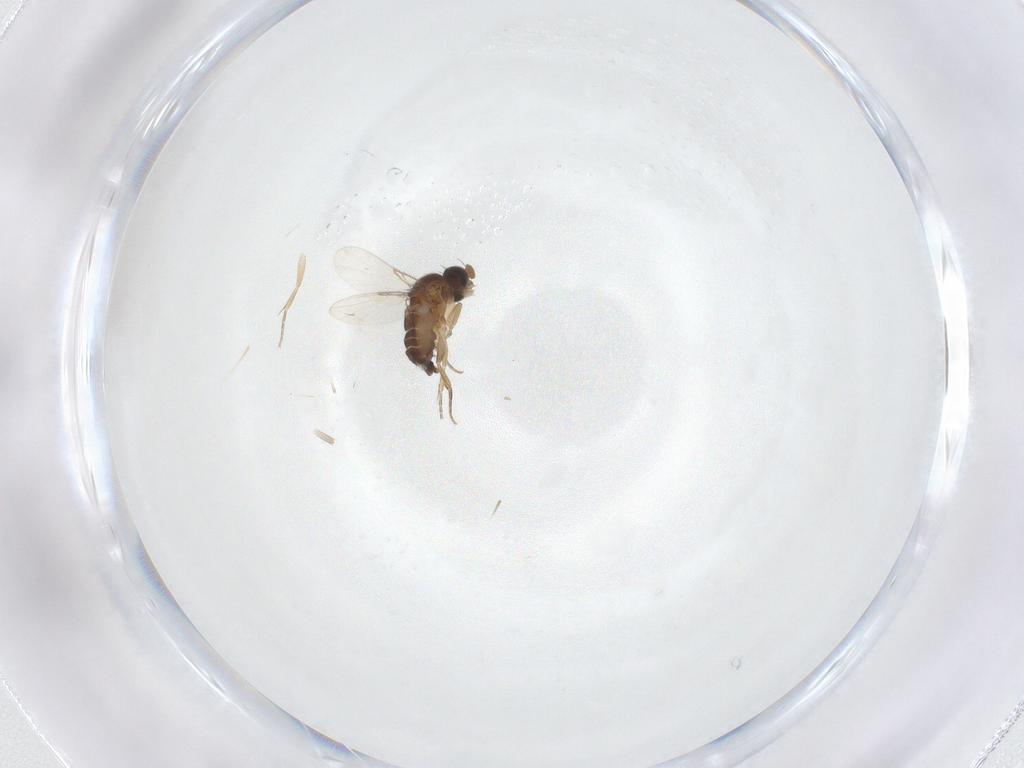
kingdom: Animalia
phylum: Arthropoda
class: Insecta
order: Diptera
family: Phoridae
